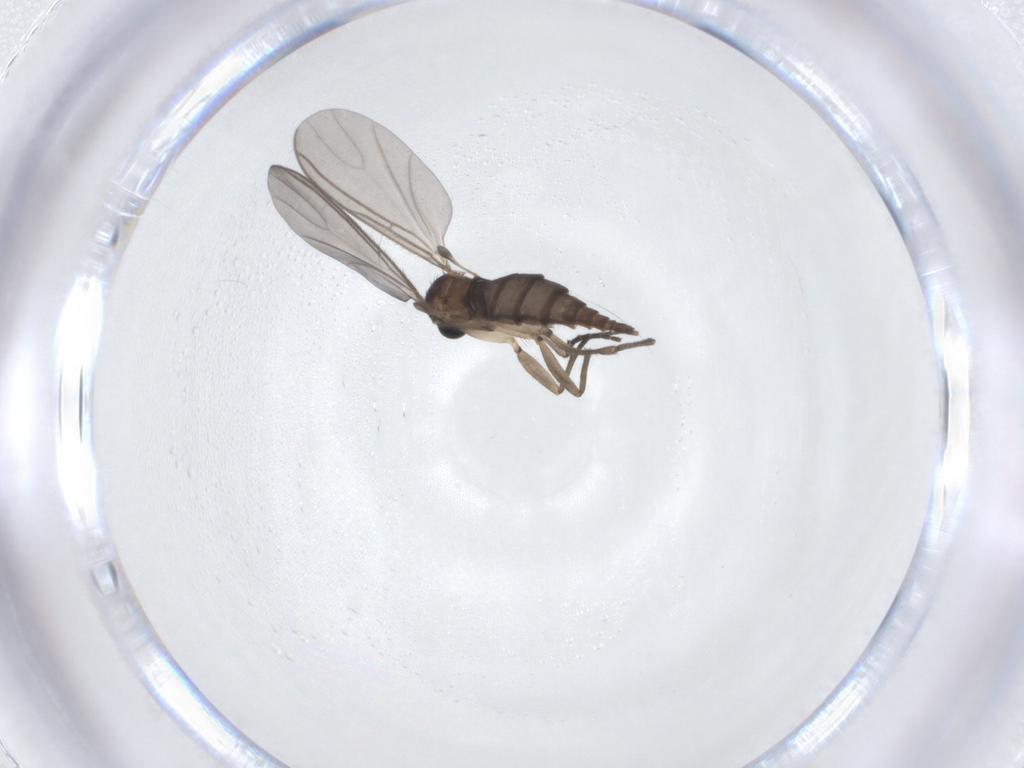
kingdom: Animalia
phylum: Arthropoda
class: Insecta
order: Diptera
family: Sciaridae
